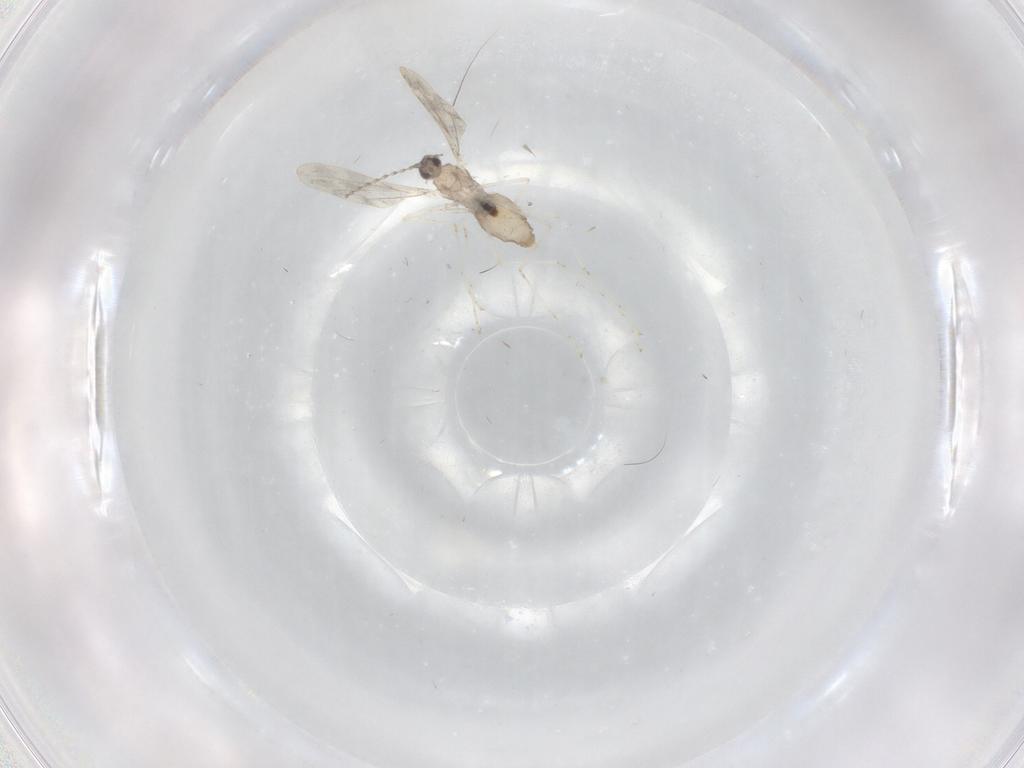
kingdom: Animalia
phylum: Arthropoda
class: Insecta
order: Diptera
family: Cecidomyiidae
